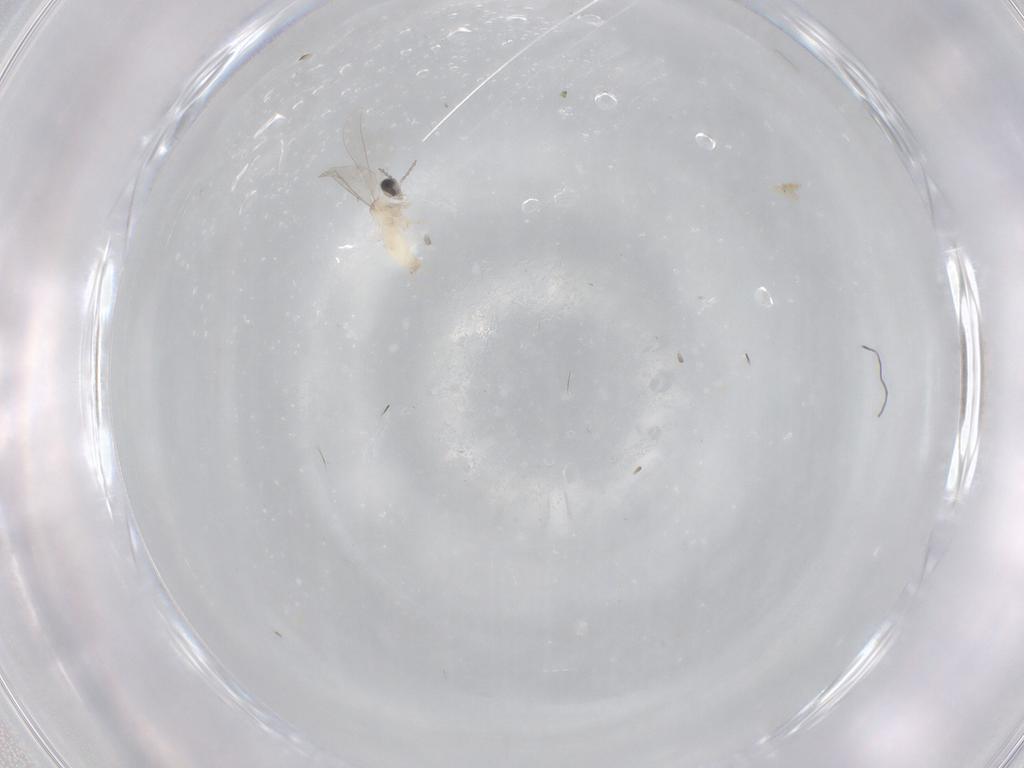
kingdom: Animalia
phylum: Arthropoda
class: Insecta
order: Diptera
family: Cecidomyiidae
